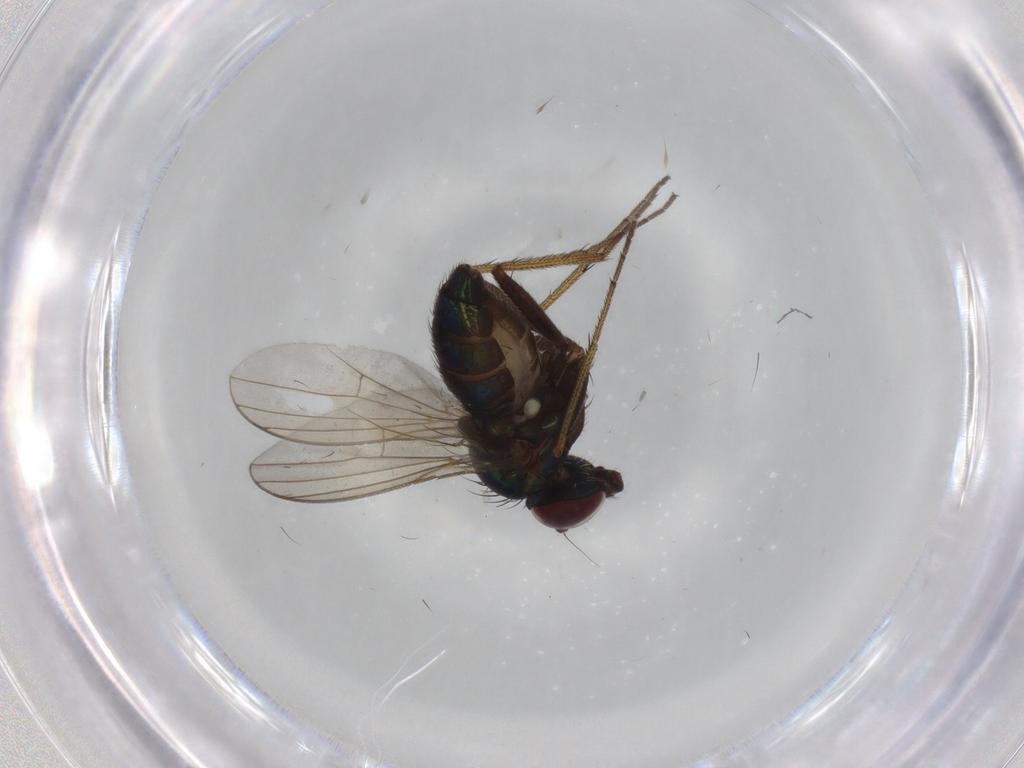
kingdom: Animalia
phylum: Arthropoda
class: Insecta
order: Diptera
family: Dolichopodidae
